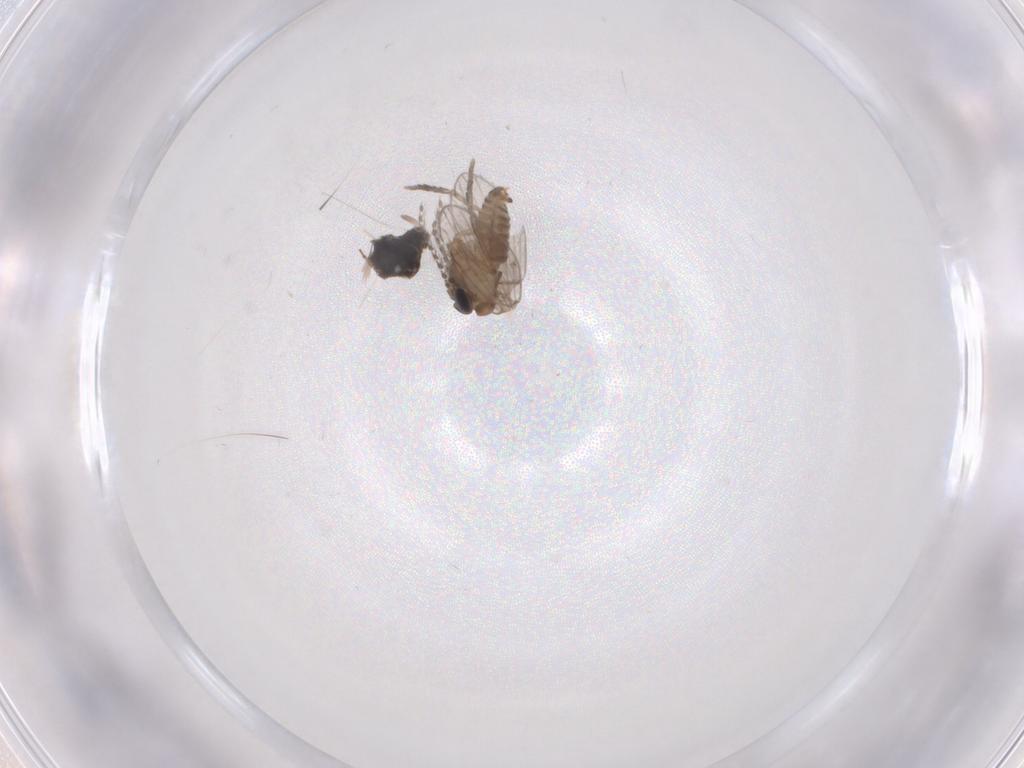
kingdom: Animalia
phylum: Arthropoda
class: Insecta
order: Diptera
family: Chironomidae
